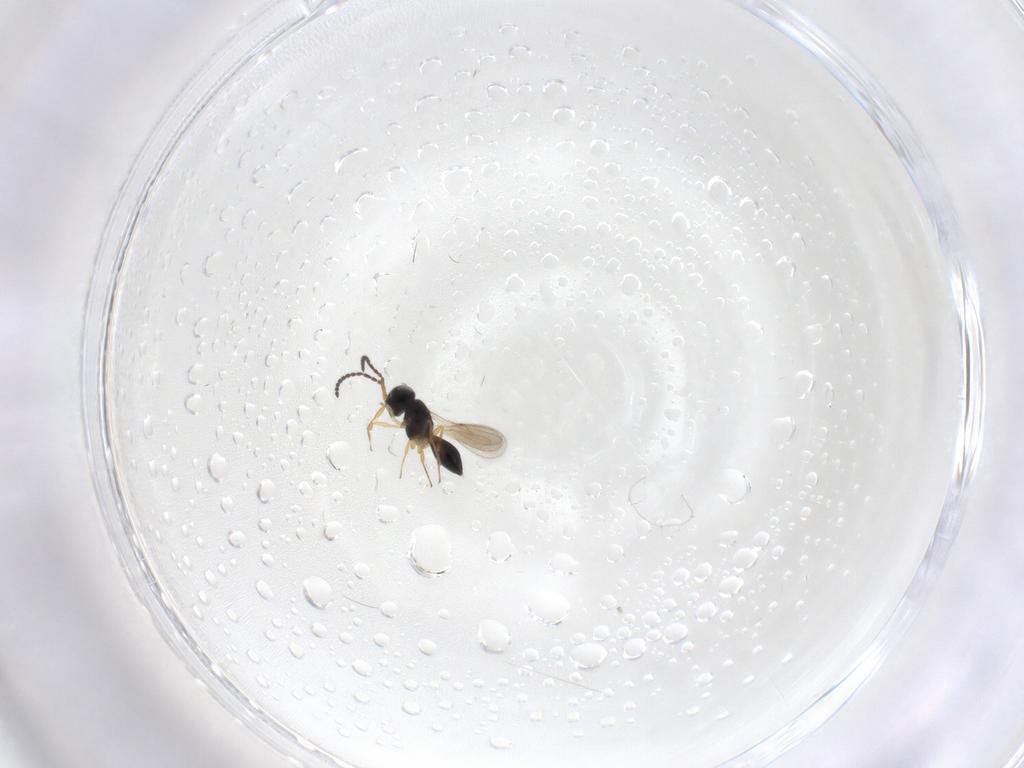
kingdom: Animalia
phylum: Arthropoda
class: Insecta
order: Hymenoptera
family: Scelionidae
